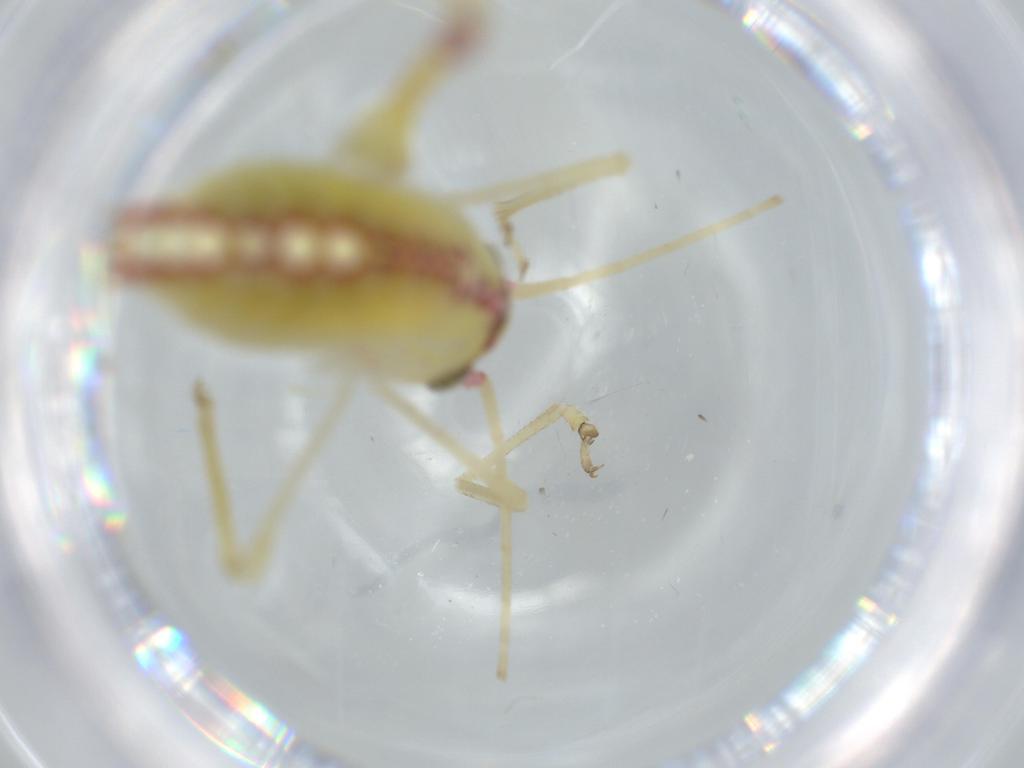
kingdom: Animalia
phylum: Arthropoda
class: Insecta
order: Orthoptera
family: Tettigoniidae
